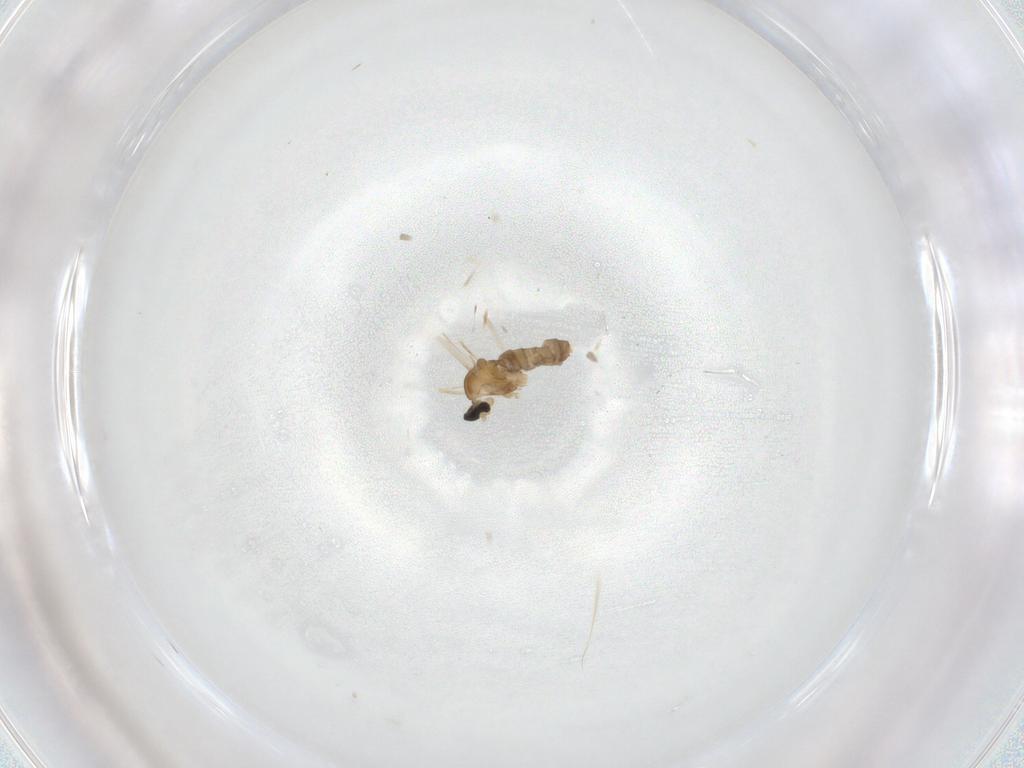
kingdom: Animalia
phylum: Arthropoda
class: Insecta
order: Diptera
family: Cecidomyiidae
